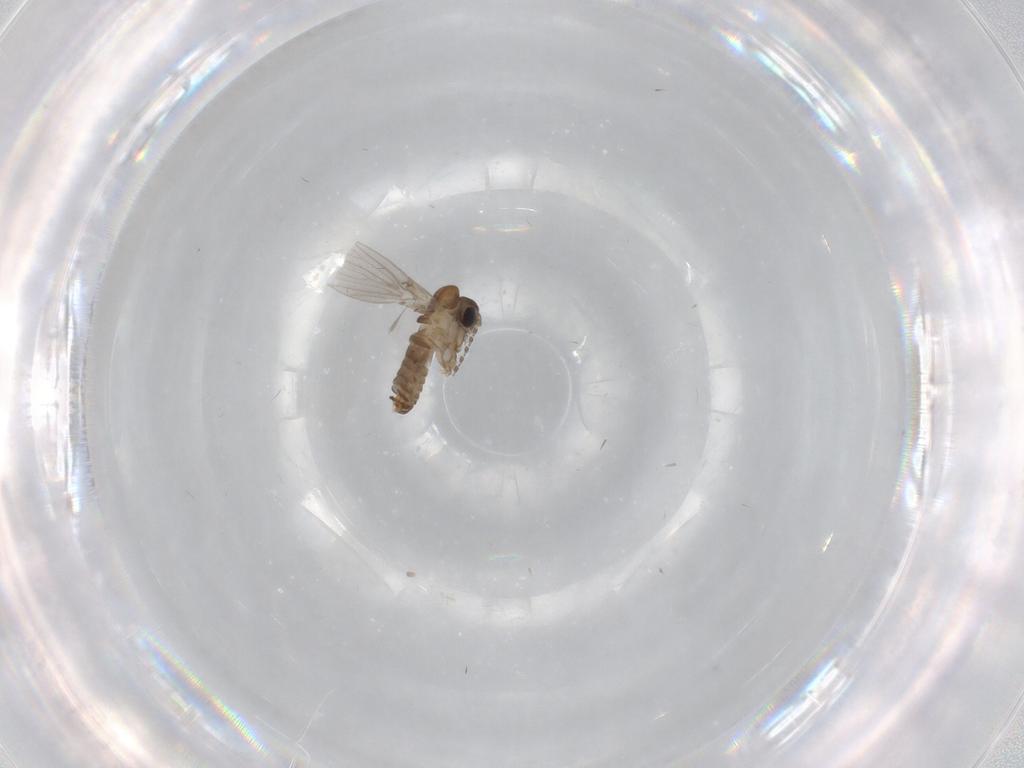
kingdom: Animalia
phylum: Arthropoda
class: Insecta
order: Diptera
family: Psychodidae
